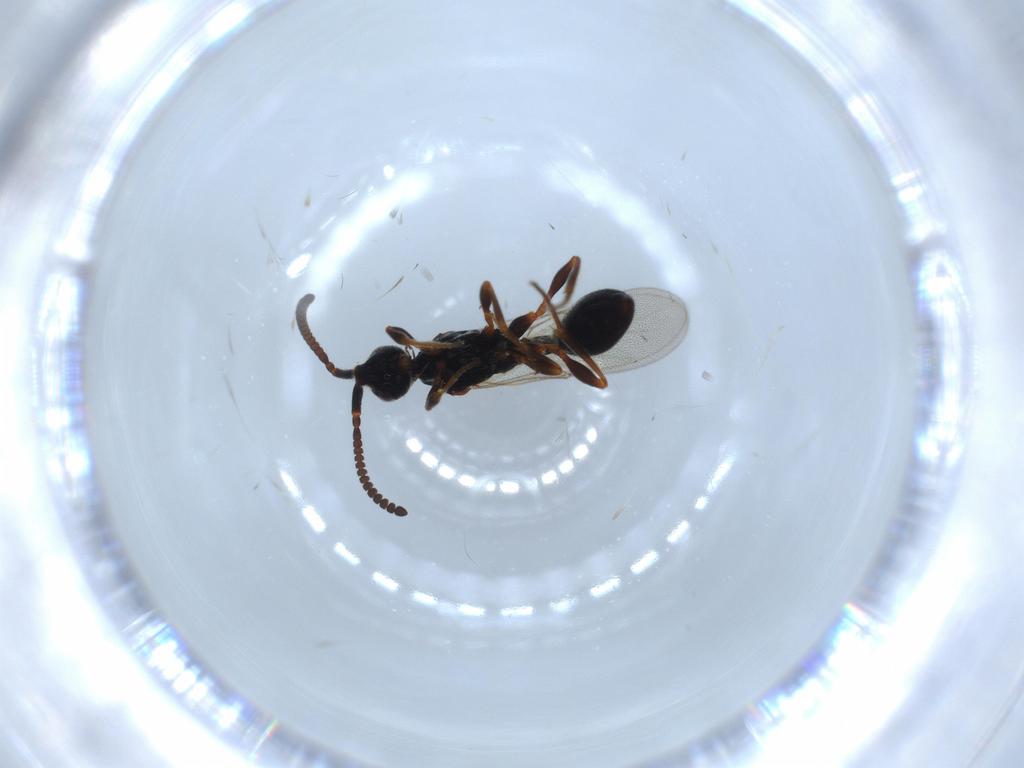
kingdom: Animalia
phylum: Arthropoda
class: Insecta
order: Hymenoptera
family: Diapriidae
